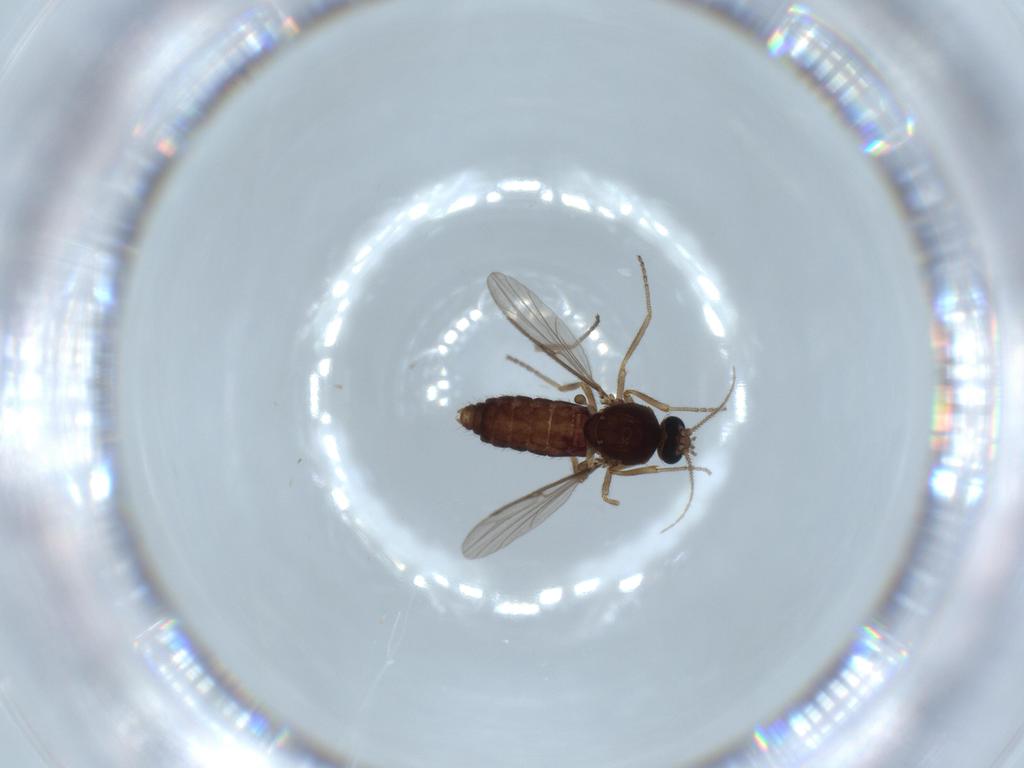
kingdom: Animalia
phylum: Arthropoda
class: Insecta
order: Diptera
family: Ceratopogonidae
